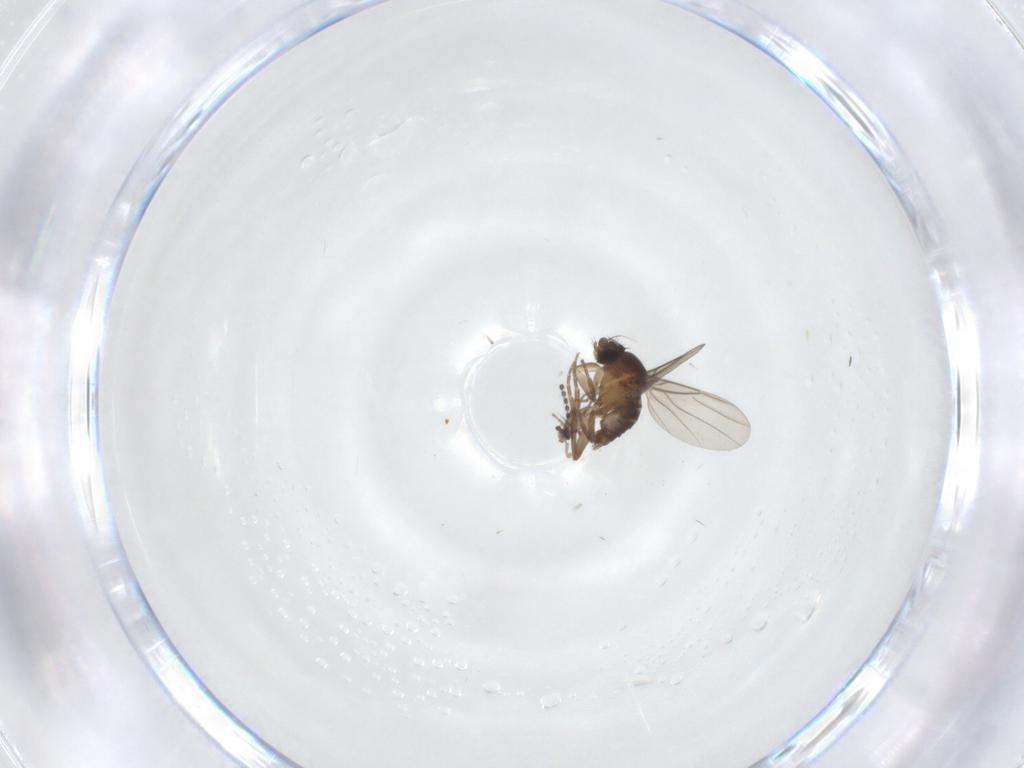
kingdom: Animalia
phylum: Arthropoda
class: Insecta
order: Diptera
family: Sciaridae
